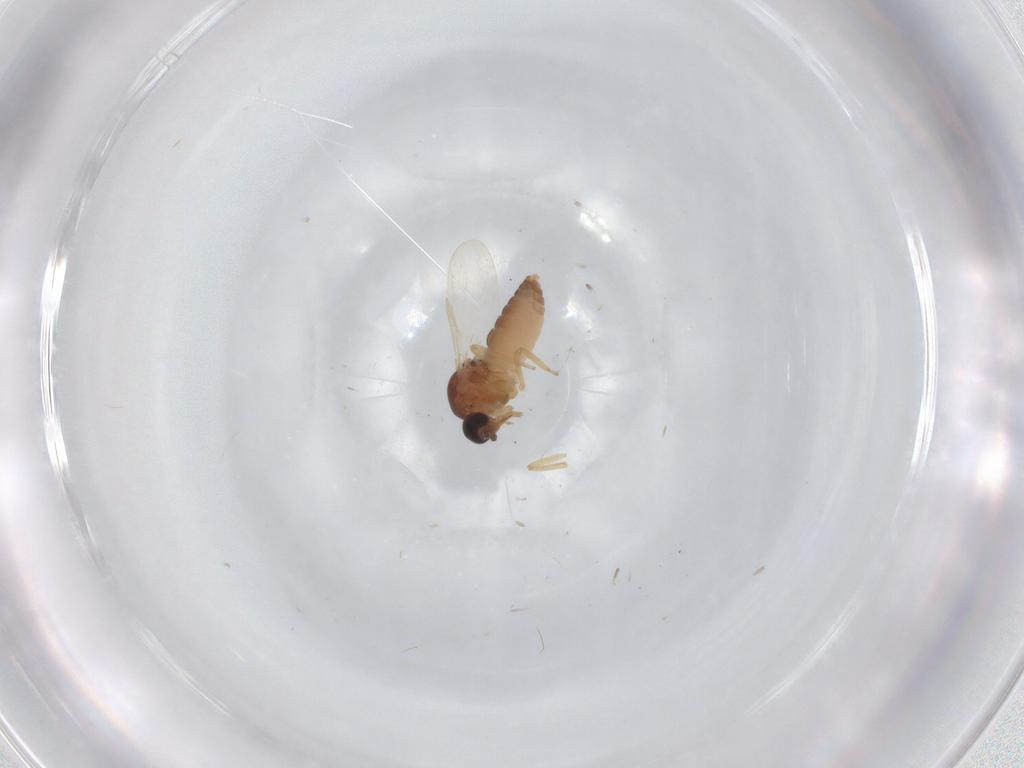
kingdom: Animalia
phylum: Arthropoda
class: Insecta
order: Diptera
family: Ceratopogonidae
